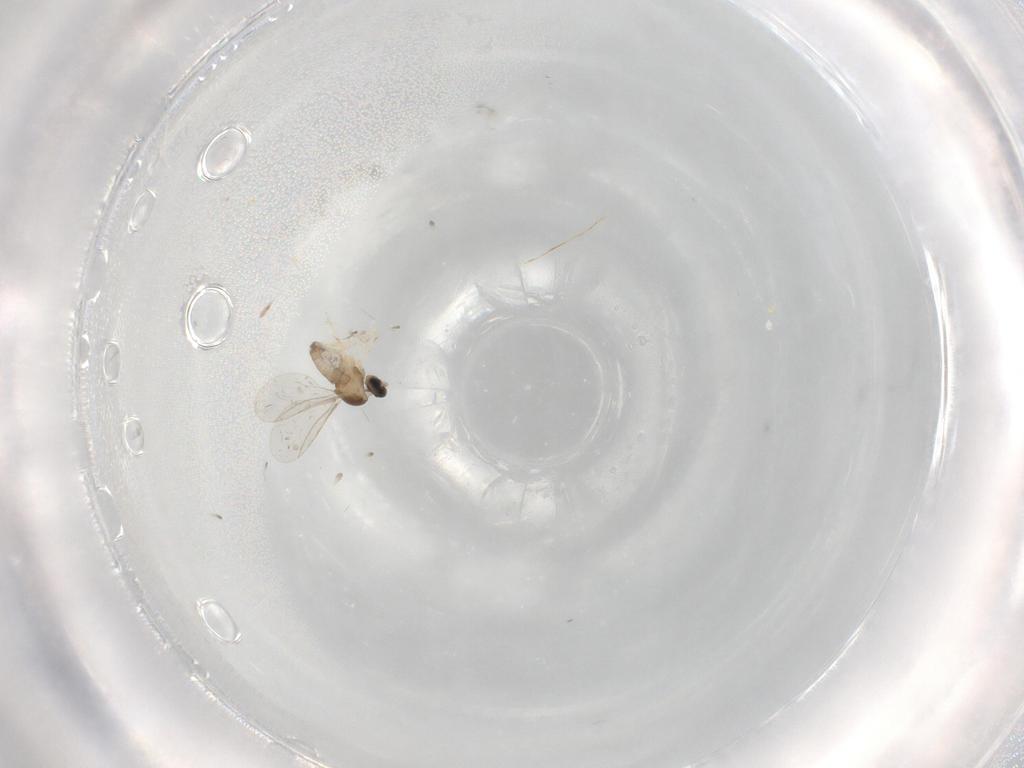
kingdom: Animalia
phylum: Arthropoda
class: Insecta
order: Diptera
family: Cecidomyiidae
